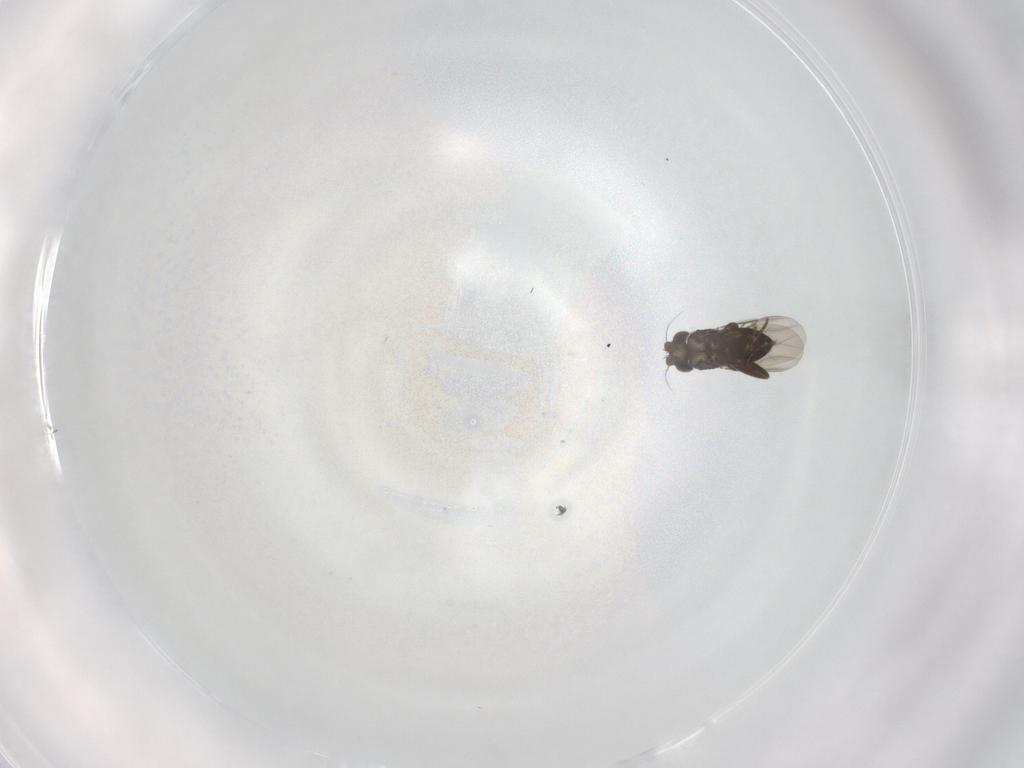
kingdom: Animalia
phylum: Arthropoda
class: Insecta
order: Diptera
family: Phoridae
